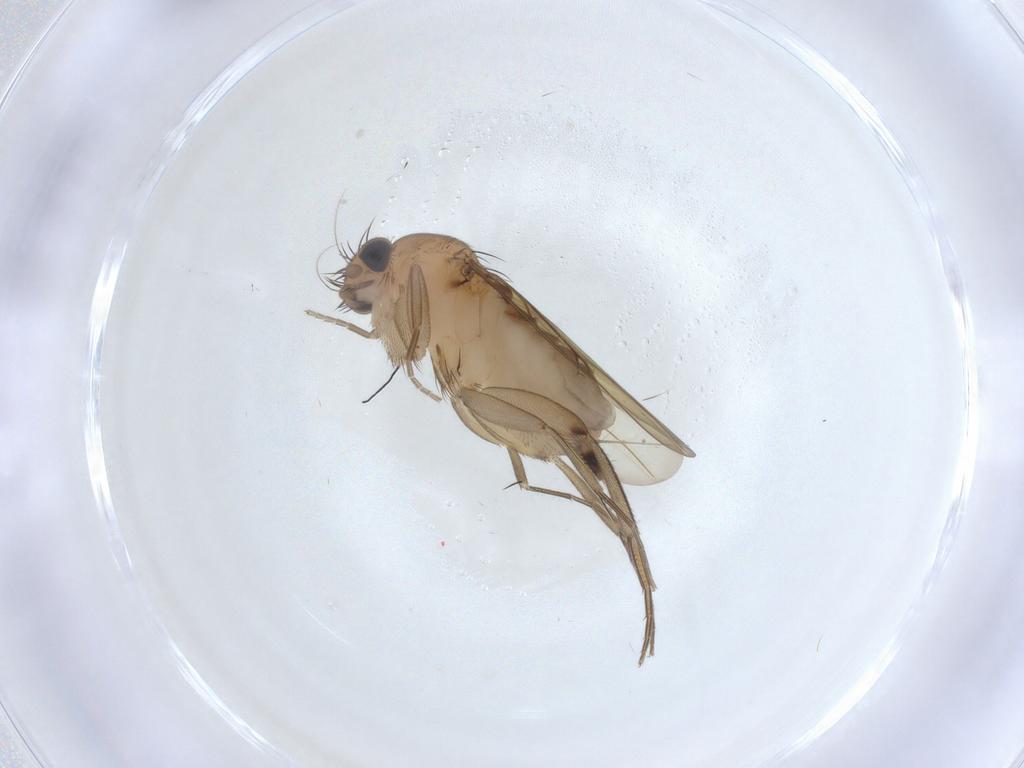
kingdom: Animalia
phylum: Arthropoda
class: Insecta
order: Diptera
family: Phoridae
